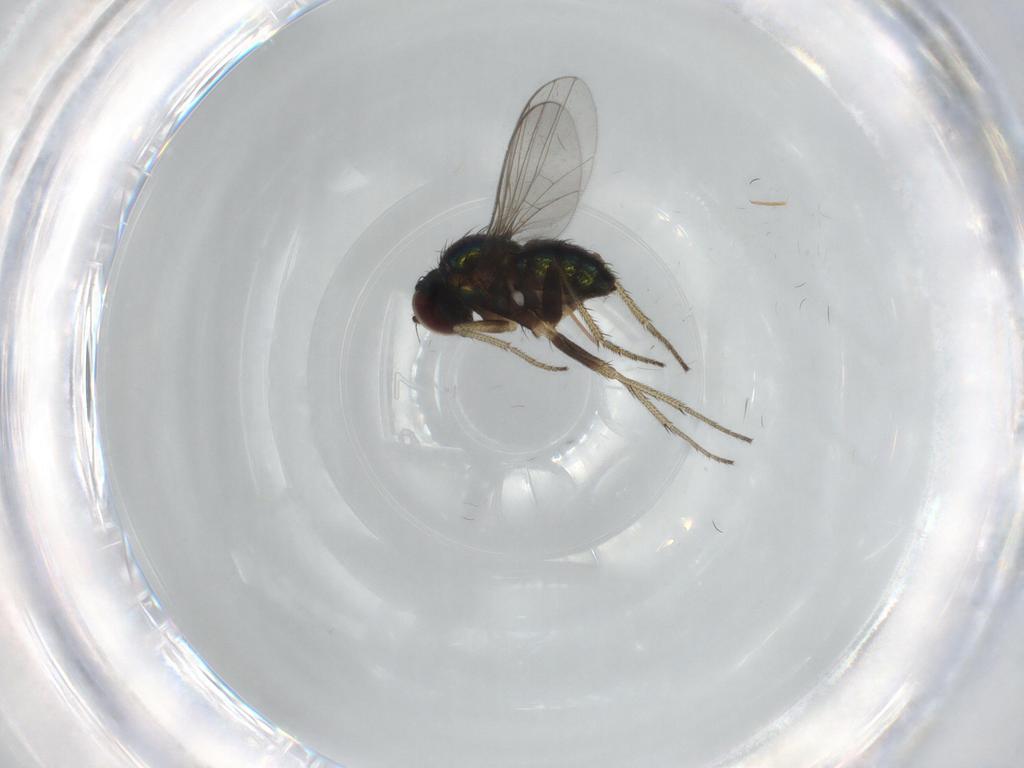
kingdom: Animalia
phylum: Arthropoda
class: Insecta
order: Diptera
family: Dolichopodidae
